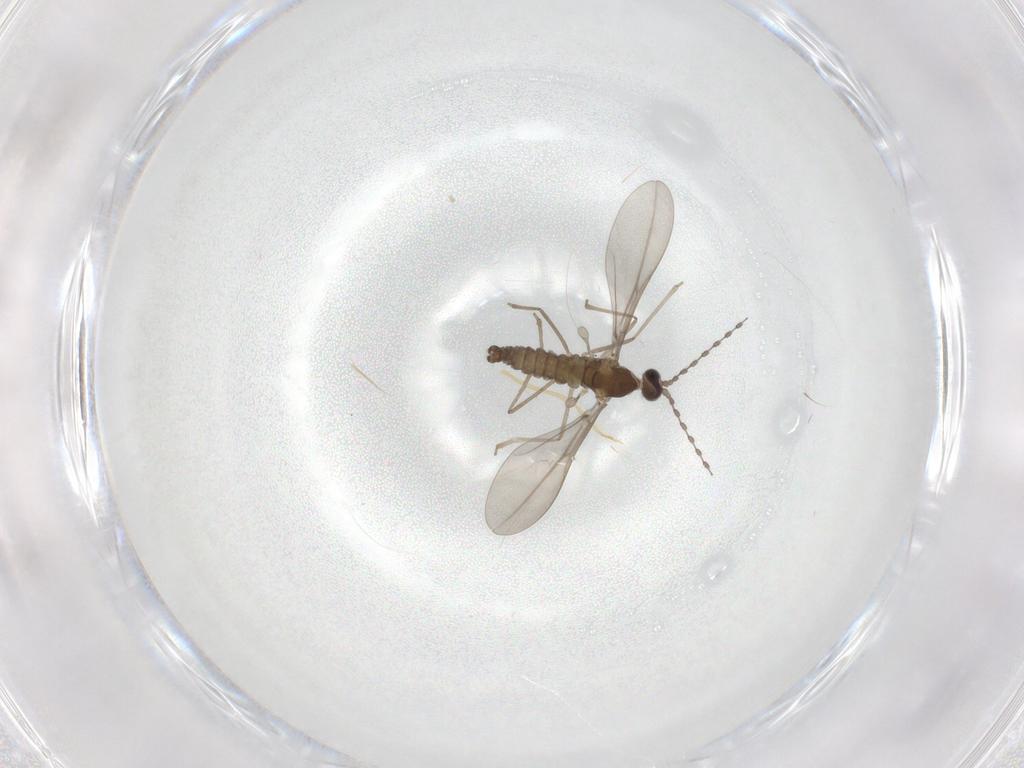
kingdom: Animalia
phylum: Arthropoda
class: Insecta
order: Diptera
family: Cecidomyiidae
